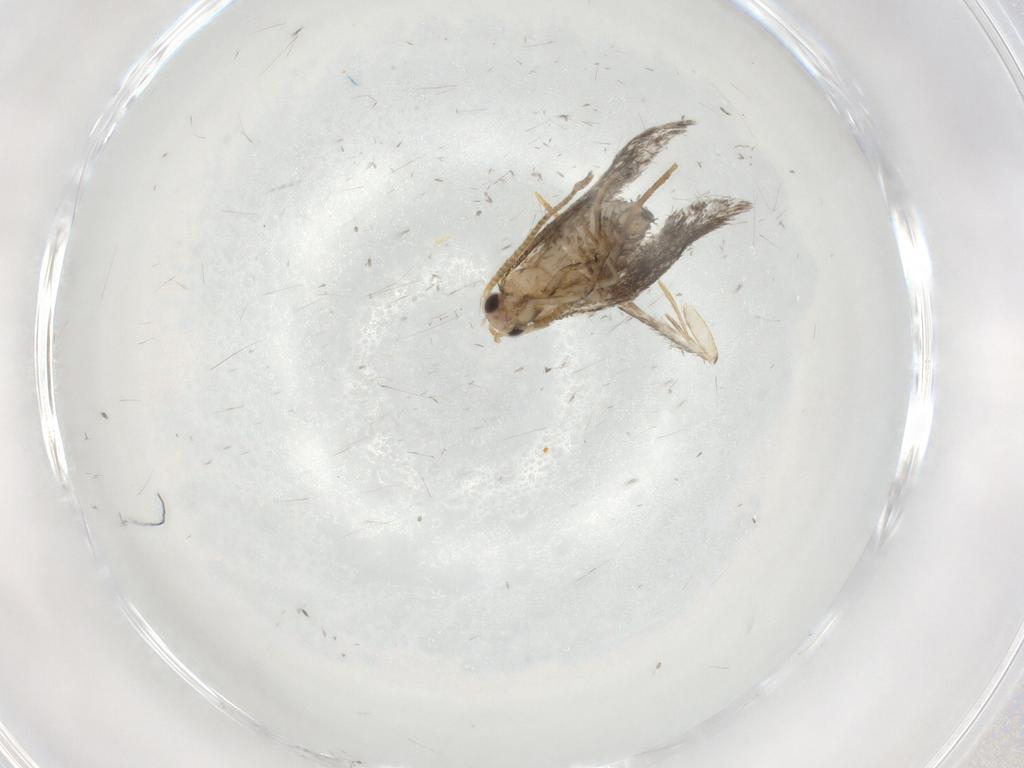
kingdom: Animalia
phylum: Arthropoda
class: Insecta
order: Lepidoptera
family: Tineidae
